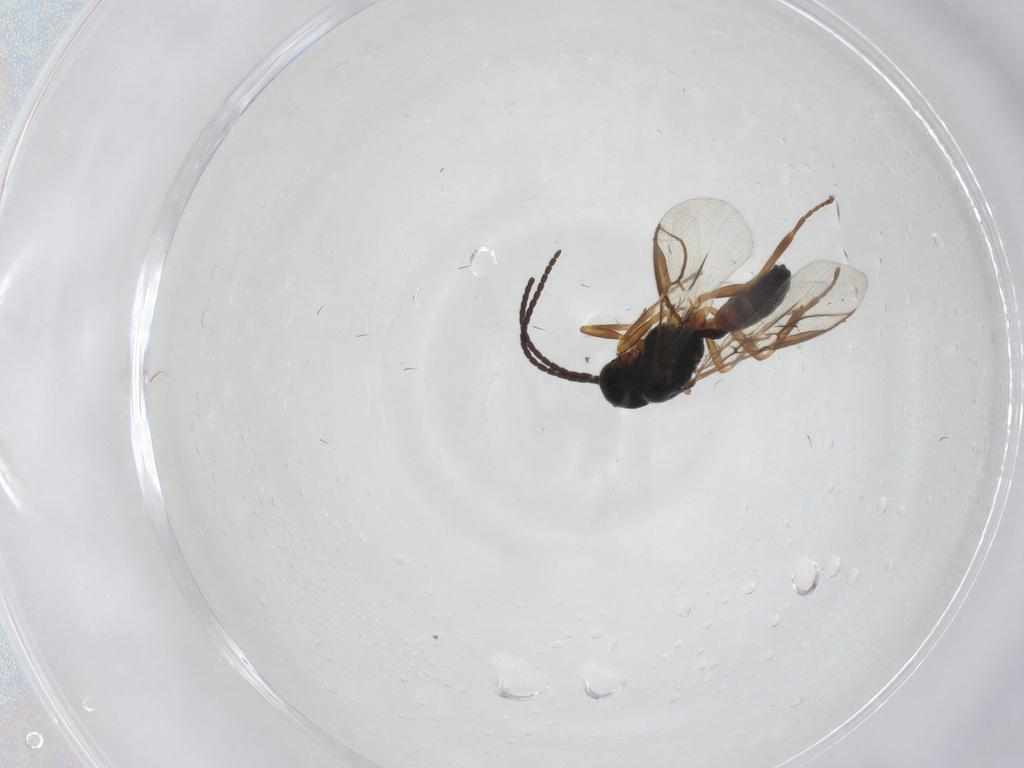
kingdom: Animalia
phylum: Arthropoda
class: Insecta
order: Hymenoptera
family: Braconidae
